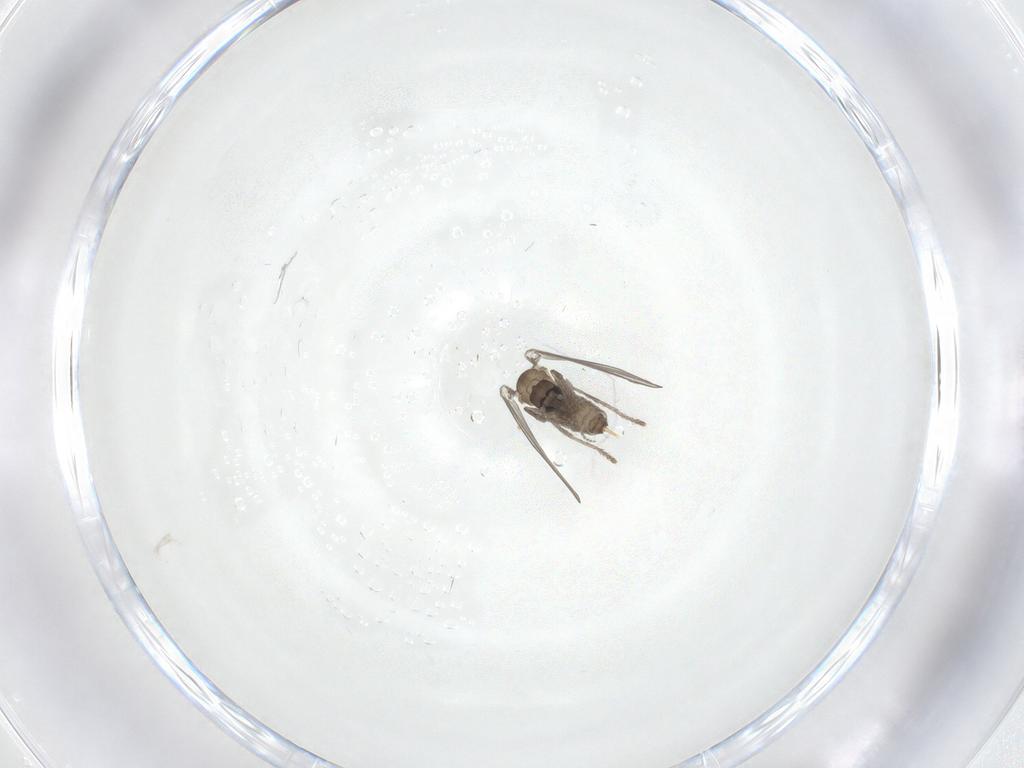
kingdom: Animalia
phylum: Arthropoda
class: Insecta
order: Diptera
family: Psychodidae
